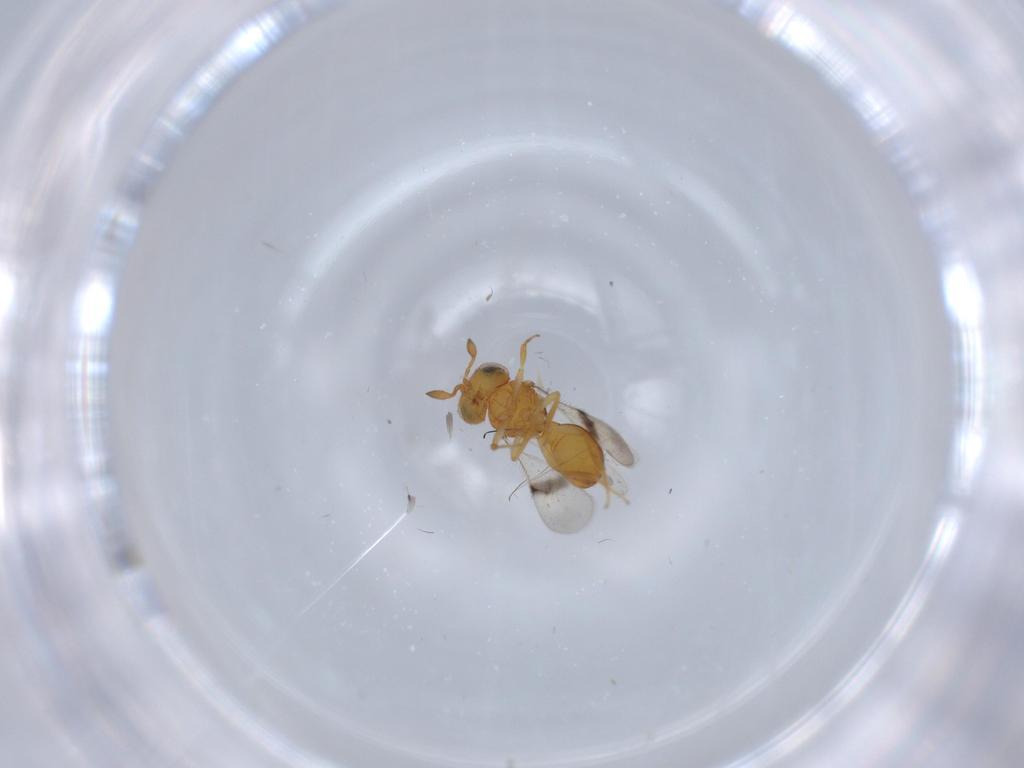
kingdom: Animalia
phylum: Arthropoda
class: Insecta
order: Hymenoptera
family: Scelionidae
